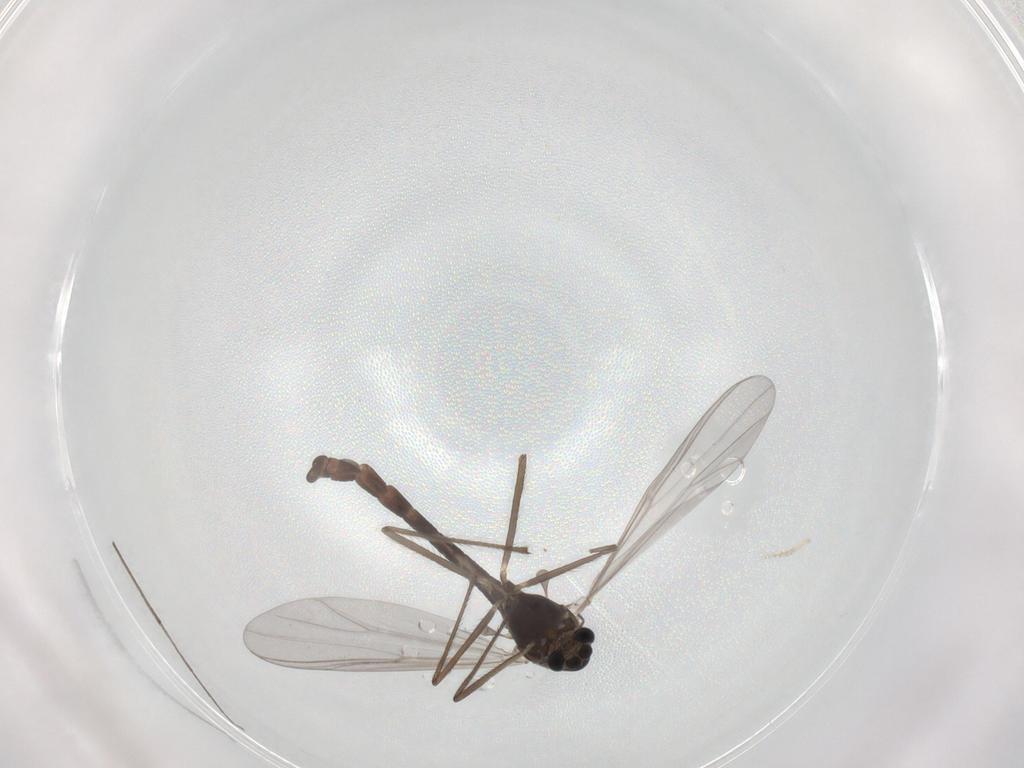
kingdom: Animalia
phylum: Arthropoda
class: Insecta
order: Diptera
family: Chironomidae
